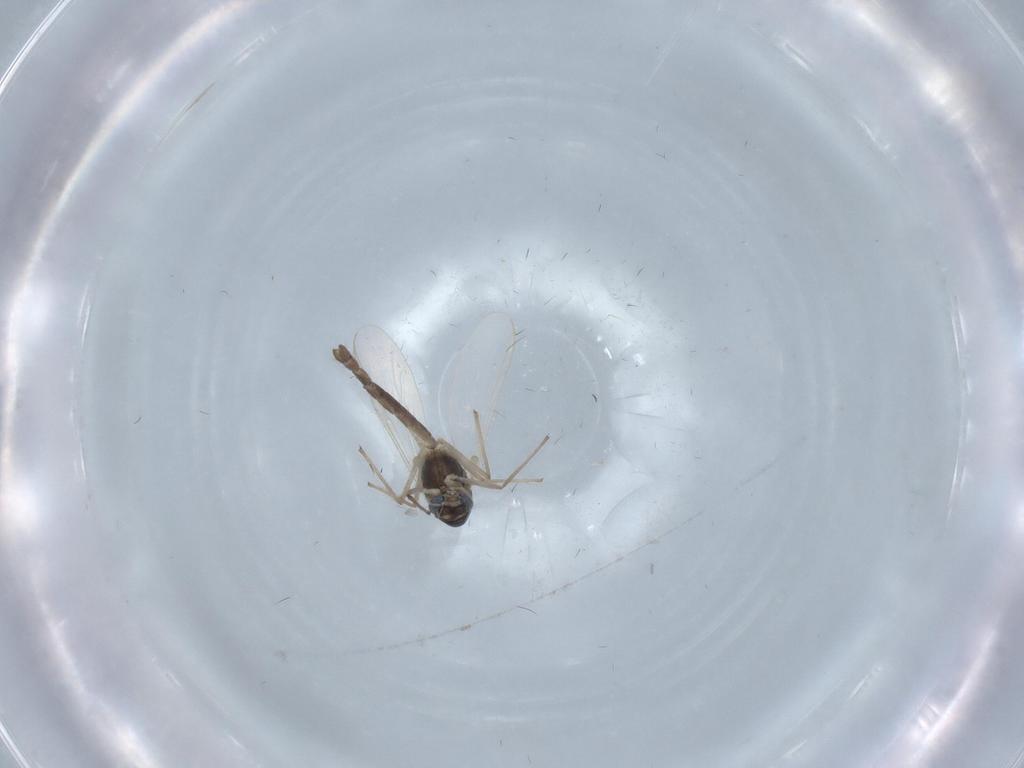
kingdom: Animalia
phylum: Arthropoda
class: Insecta
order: Diptera
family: Chironomidae
